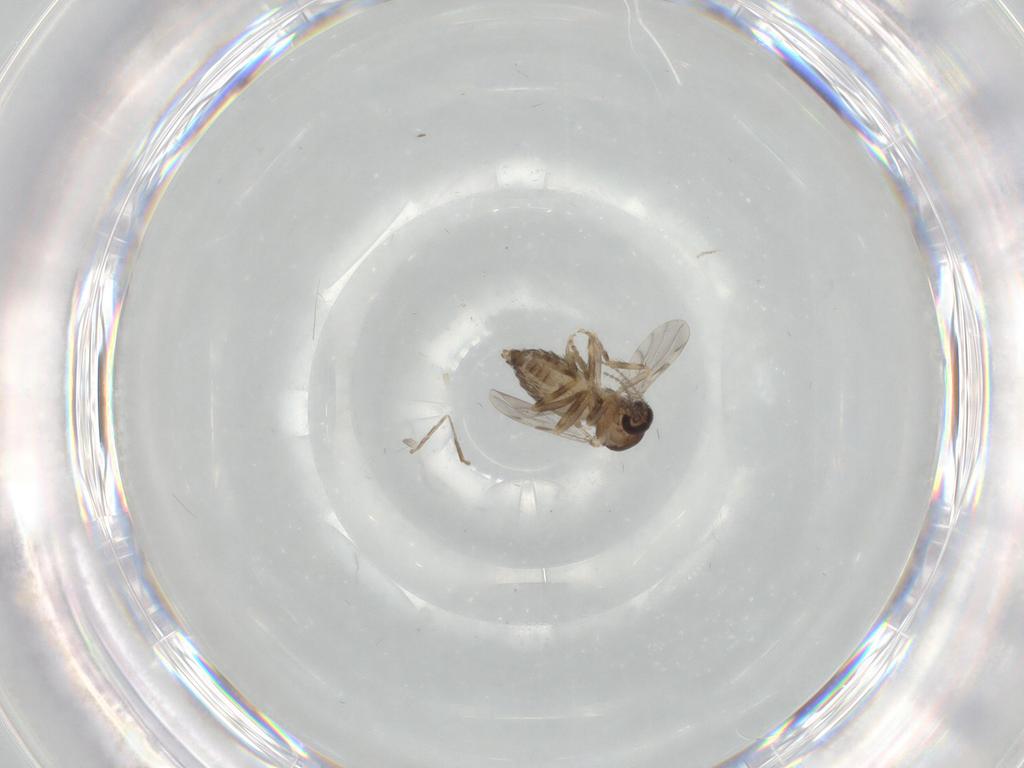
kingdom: Animalia
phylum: Arthropoda
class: Insecta
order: Diptera
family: Ceratopogonidae
